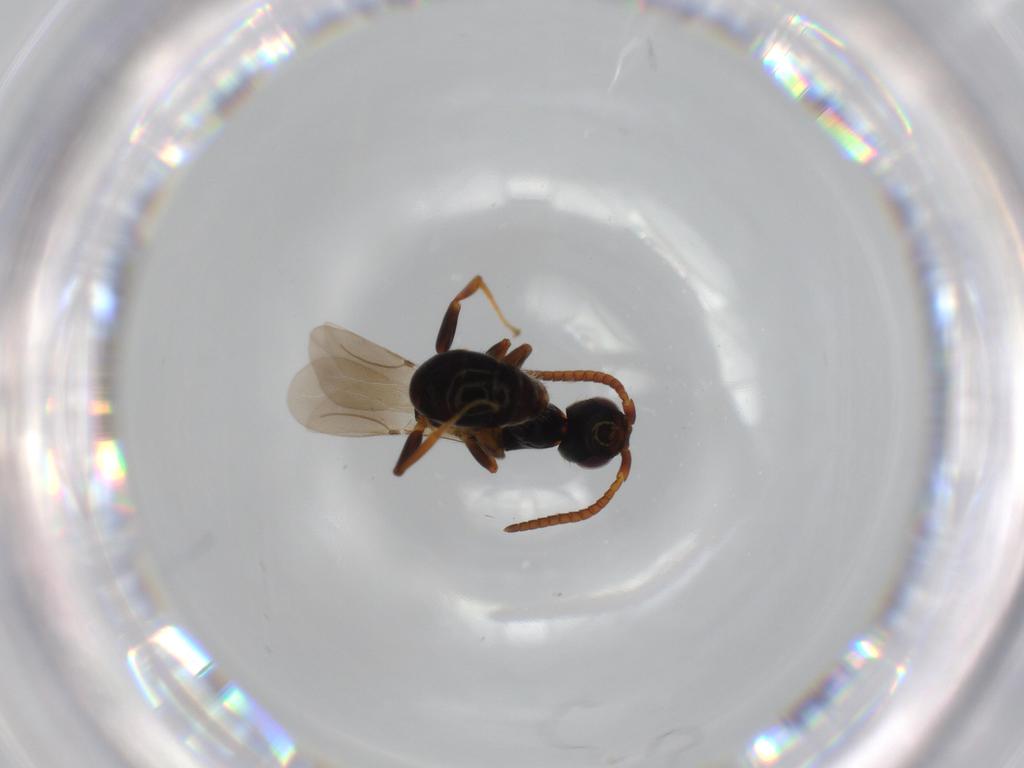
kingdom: Animalia
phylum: Arthropoda
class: Insecta
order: Hymenoptera
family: Bethylidae
